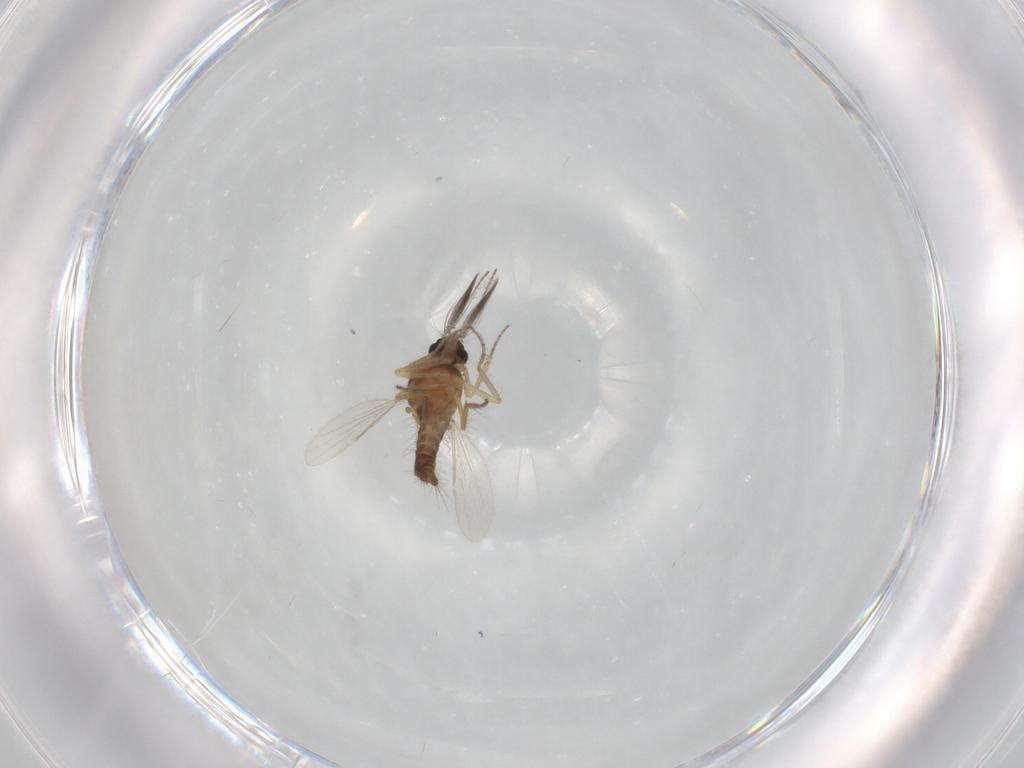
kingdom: Animalia
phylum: Arthropoda
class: Insecta
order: Diptera
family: Ceratopogonidae
